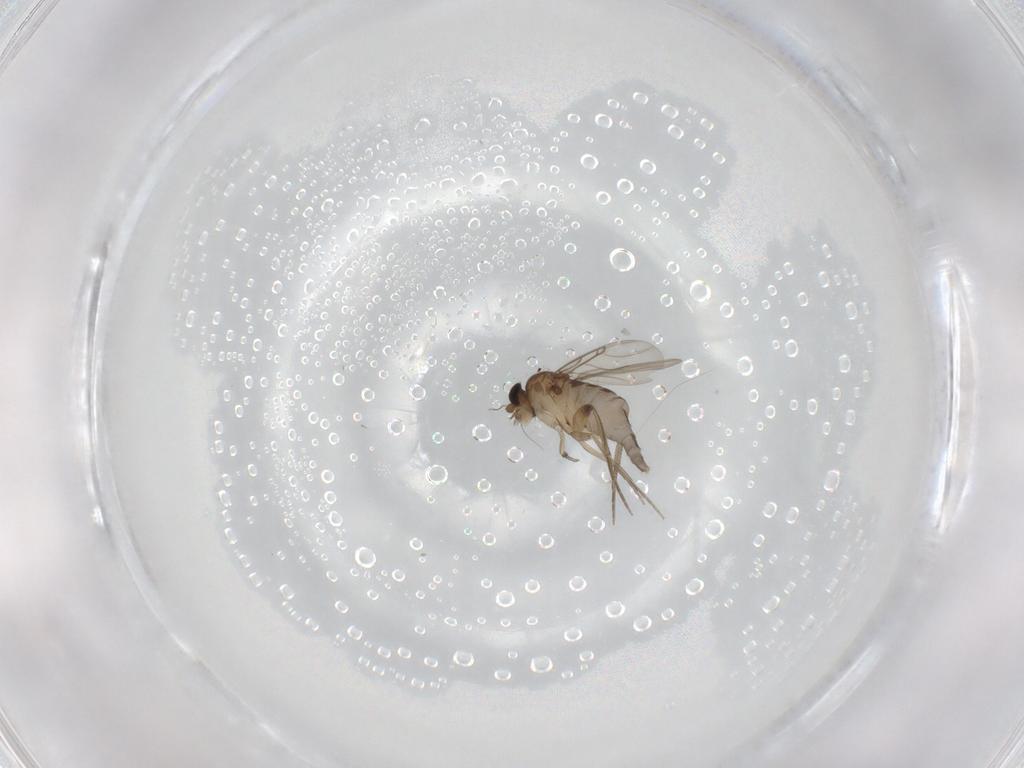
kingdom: Animalia
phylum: Arthropoda
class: Insecta
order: Diptera
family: Phoridae
